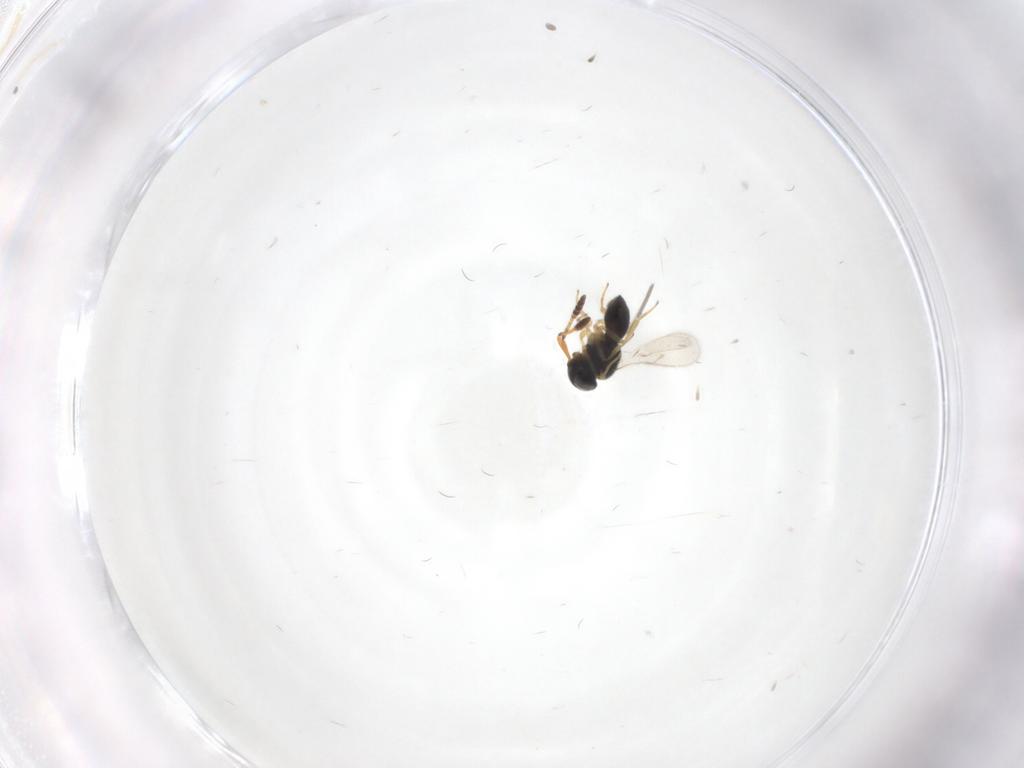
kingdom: Animalia
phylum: Arthropoda
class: Insecta
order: Hymenoptera
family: Scelionidae
